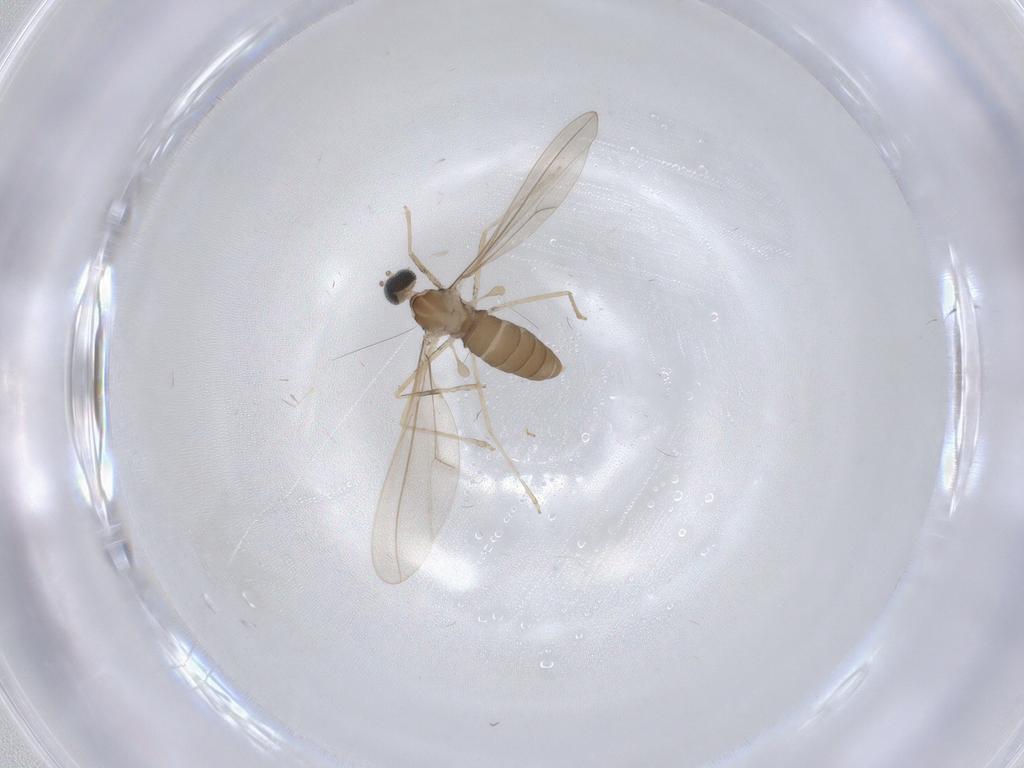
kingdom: Animalia
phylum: Arthropoda
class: Insecta
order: Diptera
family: Cecidomyiidae
